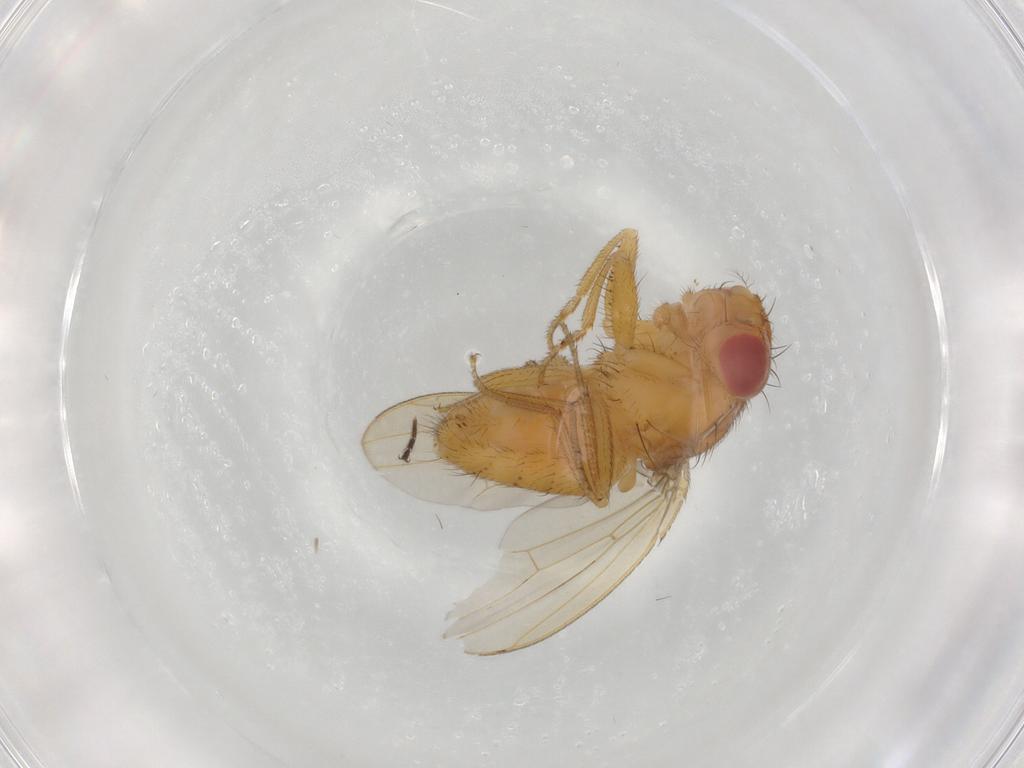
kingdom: Animalia
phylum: Arthropoda
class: Insecta
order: Diptera
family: Drosophilidae
